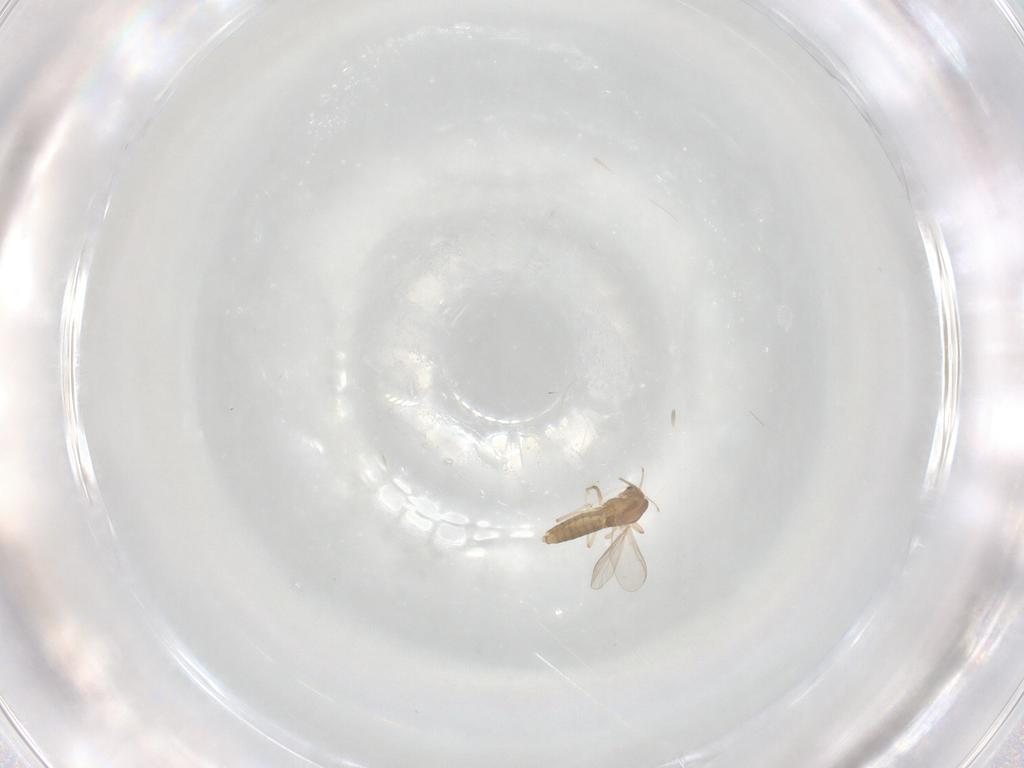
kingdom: Animalia
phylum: Arthropoda
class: Insecta
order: Diptera
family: Chironomidae
